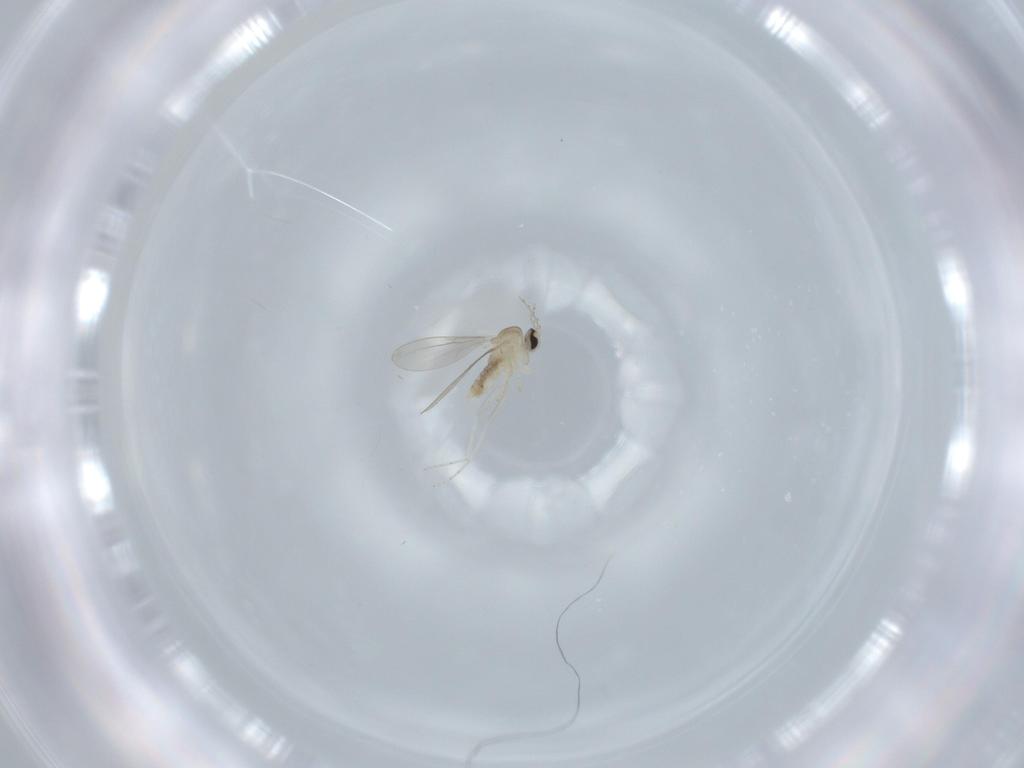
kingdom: Animalia
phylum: Arthropoda
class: Insecta
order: Diptera
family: Cecidomyiidae
